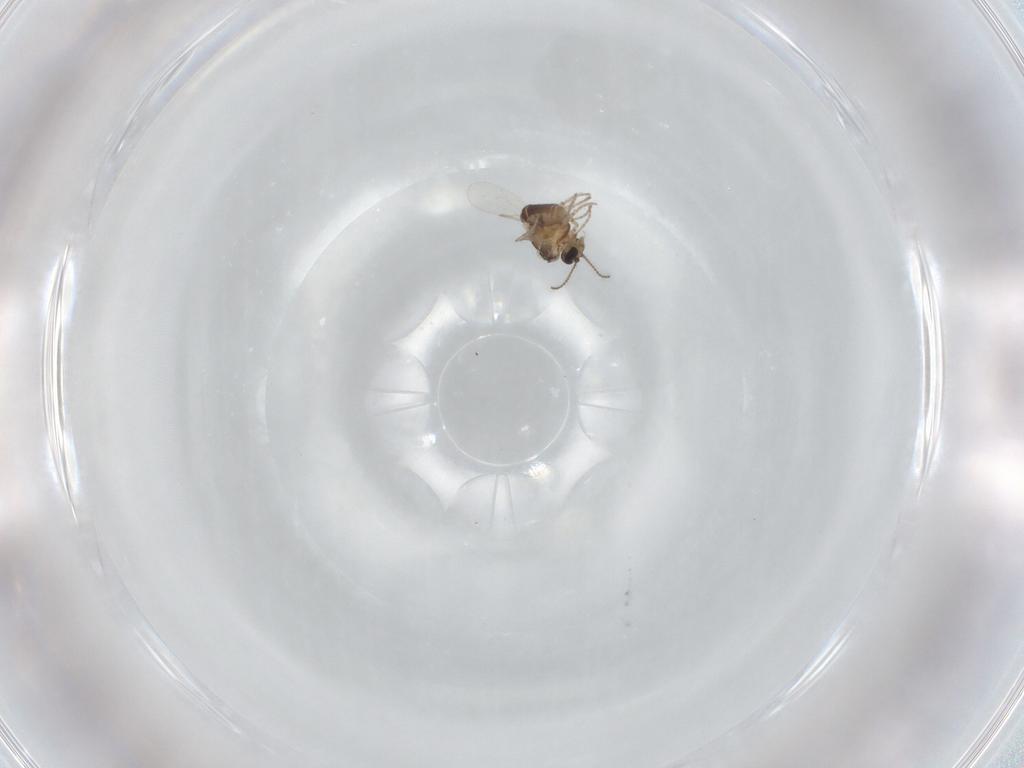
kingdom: Animalia
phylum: Arthropoda
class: Insecta
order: Diptera
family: Ceratopogonidae
